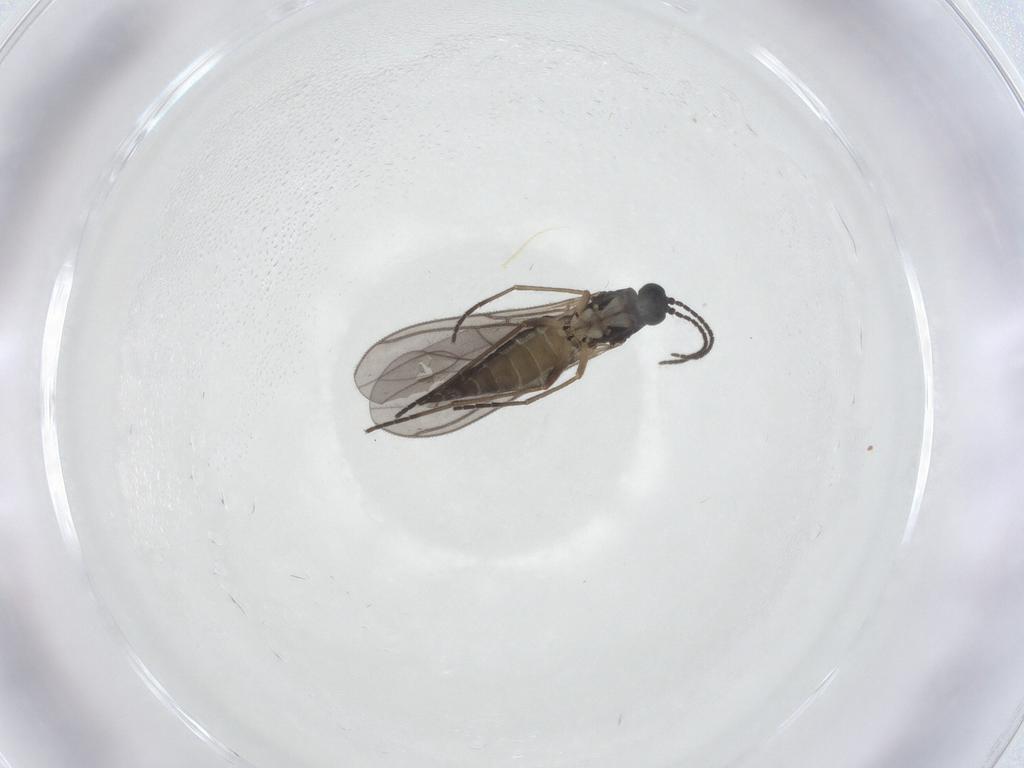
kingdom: Animalia
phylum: Arthropoda
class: Insecta
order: Diptera
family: Sciaridae
